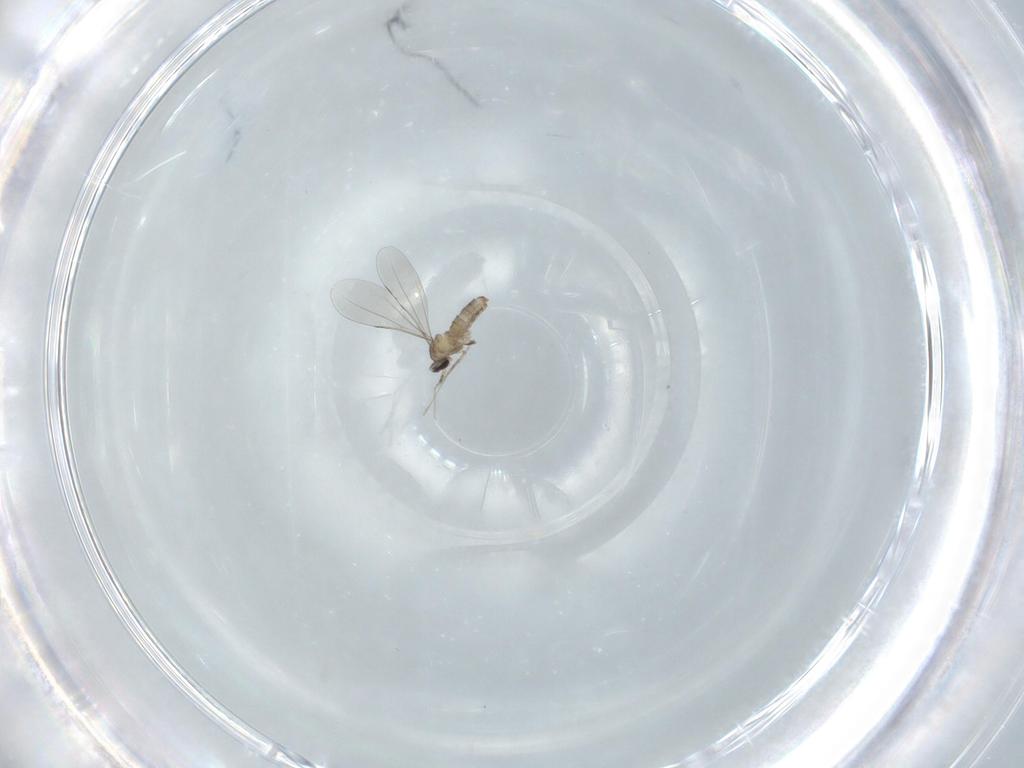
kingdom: Animalia
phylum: Arthropoda
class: Insecta
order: Diptera
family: Cecidomyiidae
